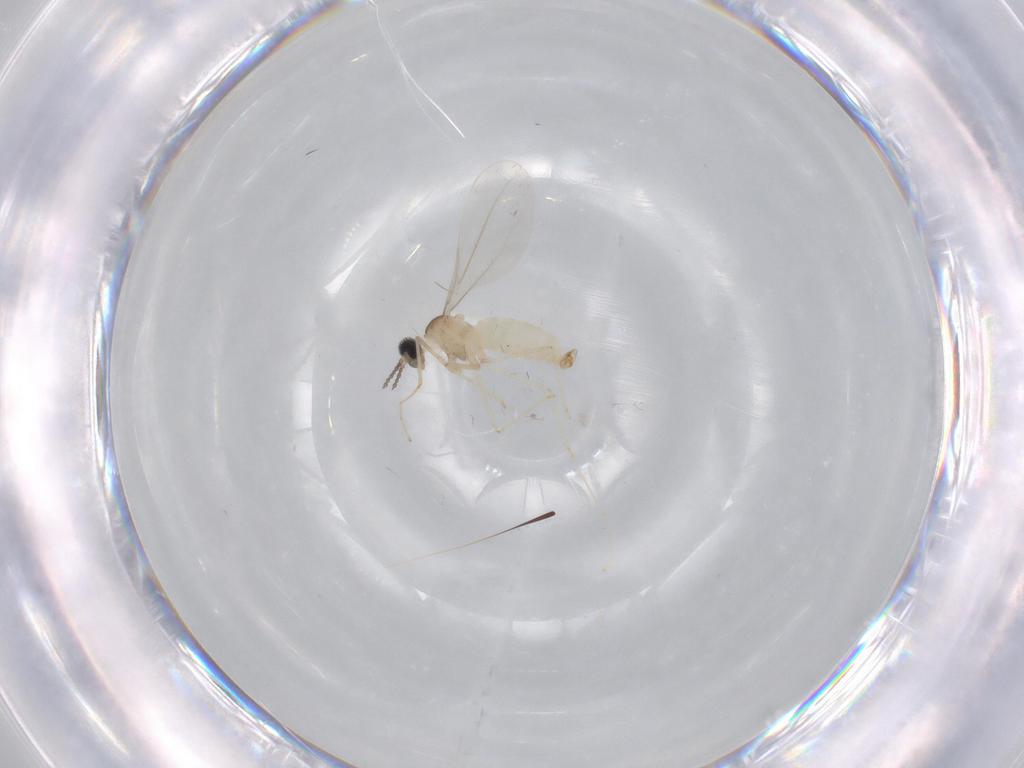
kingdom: Animalia
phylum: Arthropoda
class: Insecta
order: Diptera
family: Cecidomyiidae
